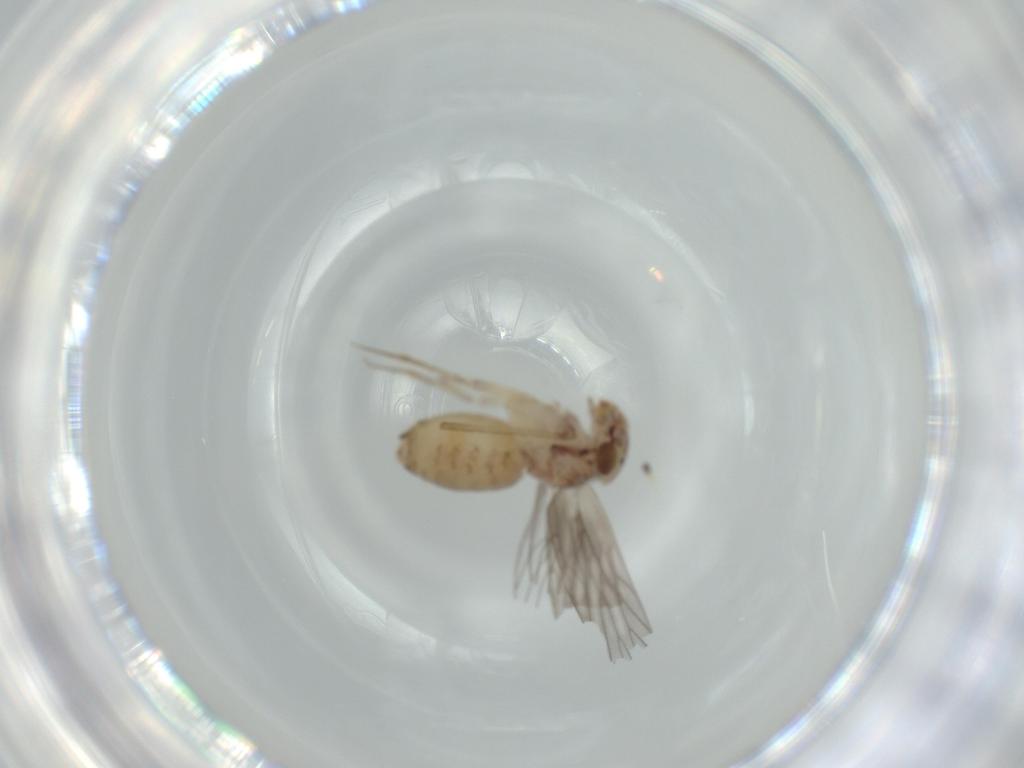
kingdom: Animalia
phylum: Arthropoda
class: Insecta
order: Psocodea
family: Lepidopsocidae
